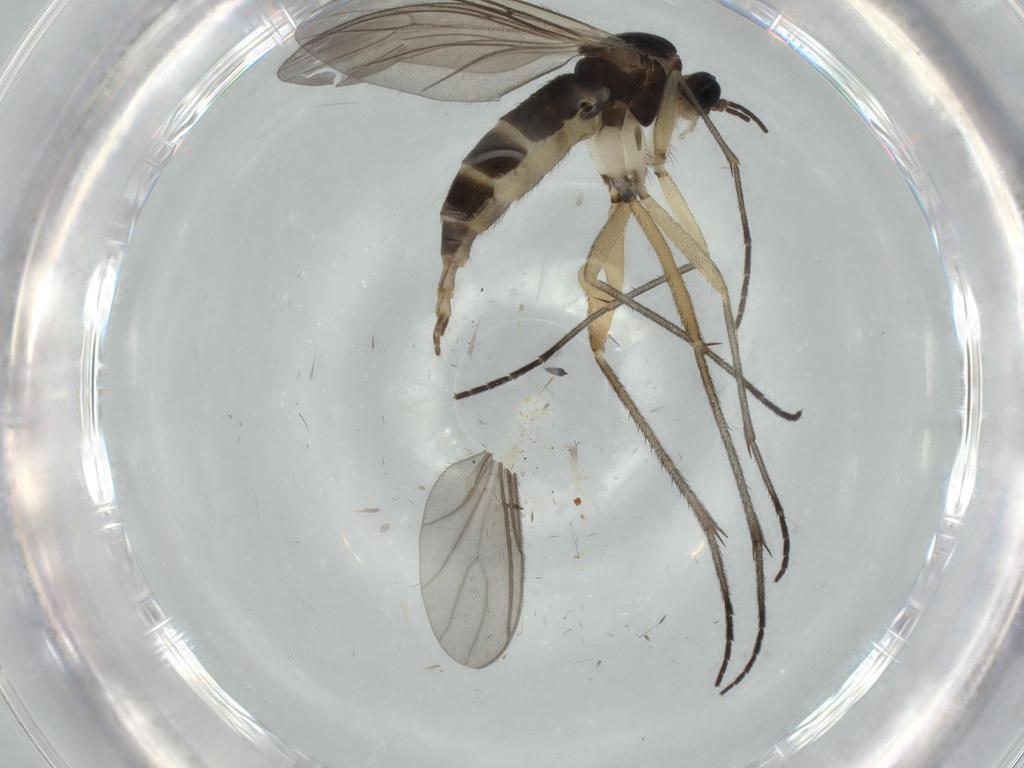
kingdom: Animalia
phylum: Arthropoda
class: Insecta
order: Diptera
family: Sciaridae
